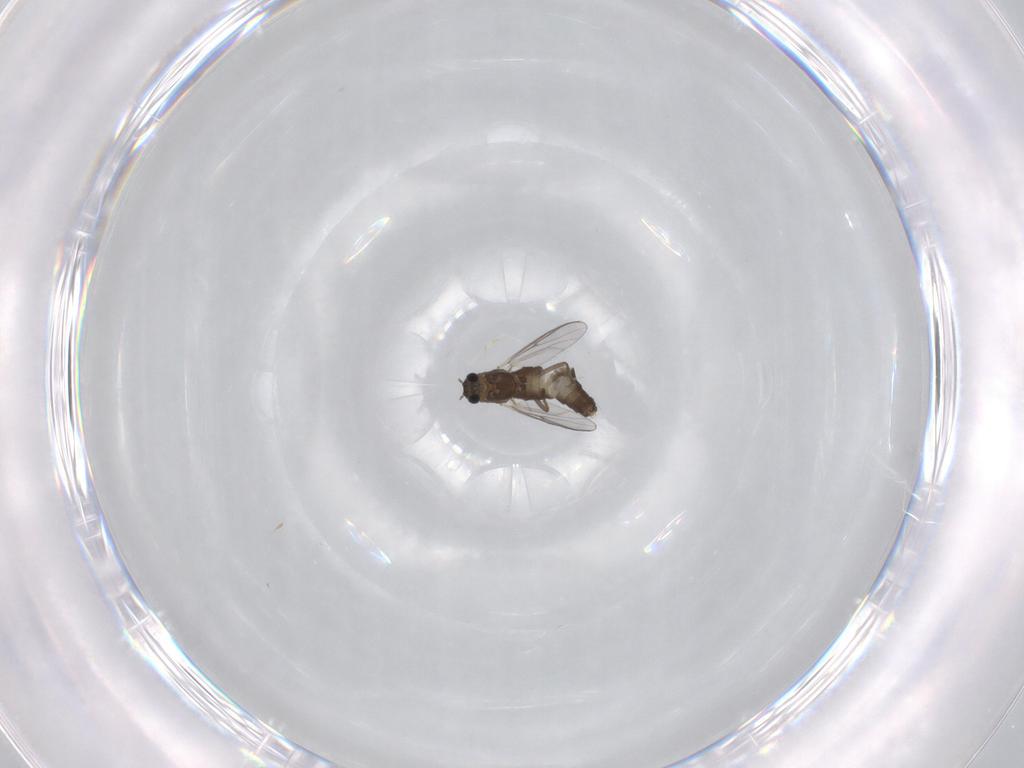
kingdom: Animalia
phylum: Arthropoda
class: Insecta
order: Diptera
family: Chironomidae
